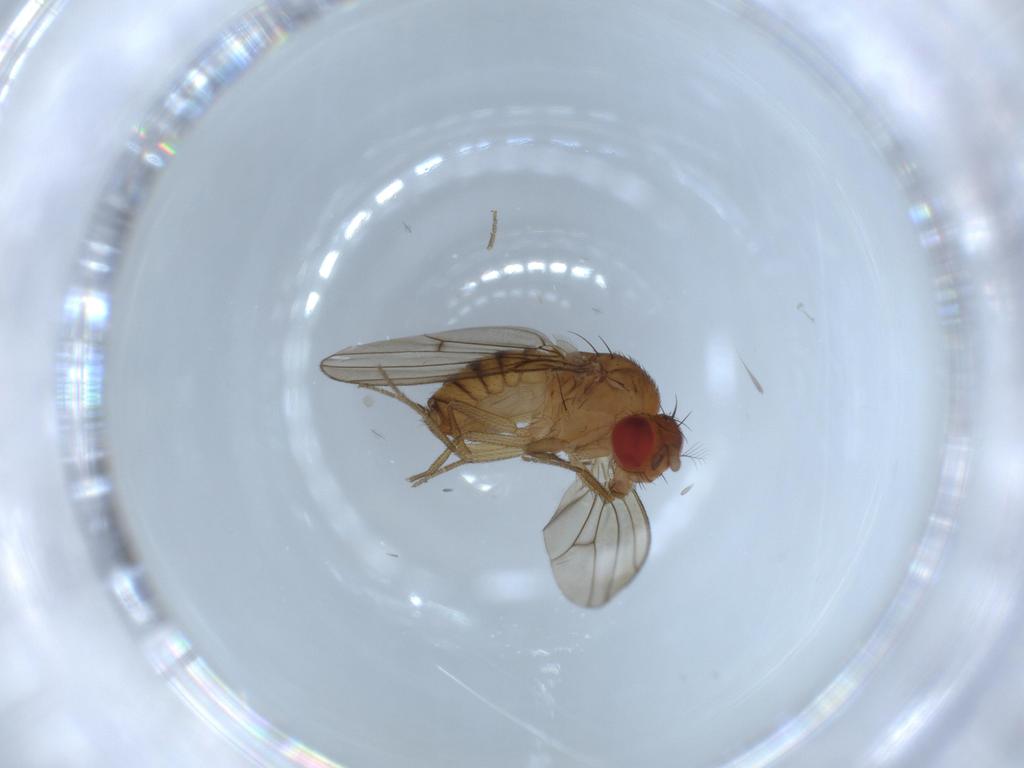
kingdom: Animalia
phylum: Arthropoda
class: Insecta
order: Diptera
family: Drosophilidae
